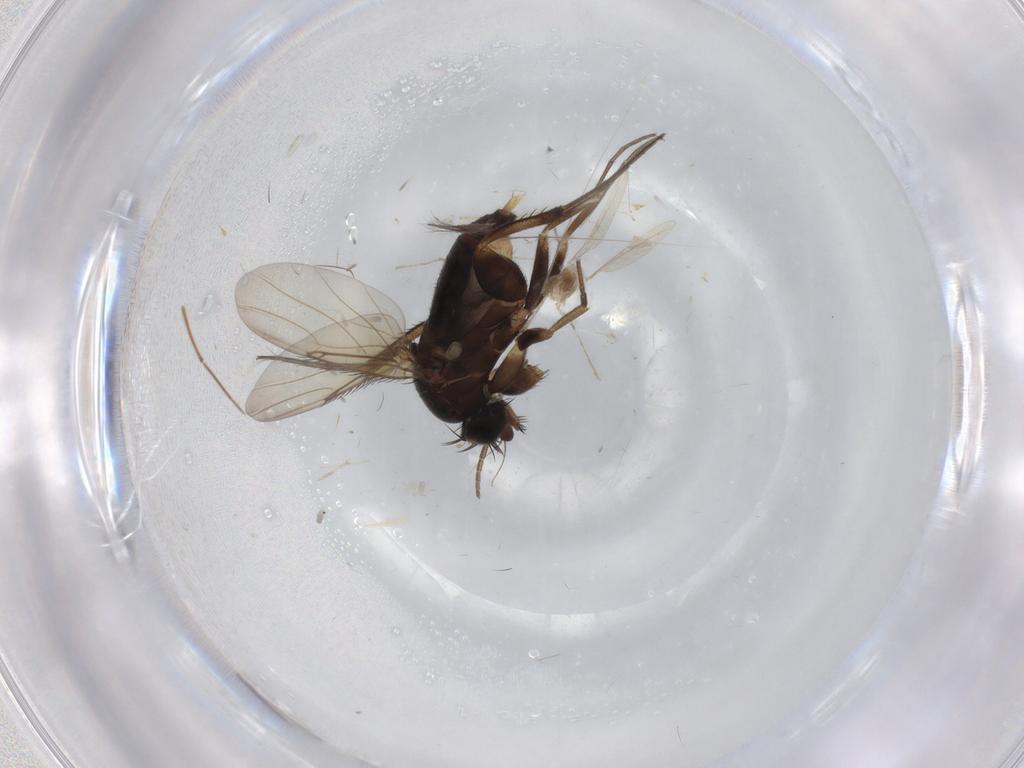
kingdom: Animalia
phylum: Arthropoda
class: Insecta
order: Diptera
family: Phoridae
